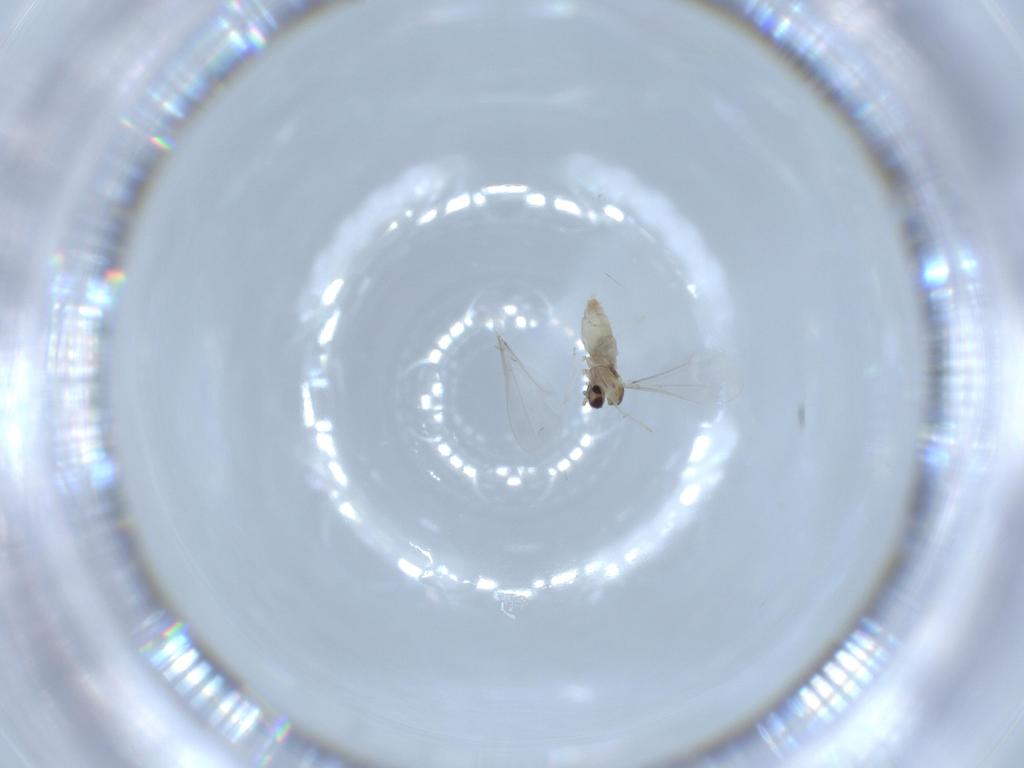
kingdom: Animalia
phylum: Arthropoda
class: Insecta
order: Diptera
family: Cecidomyiidae
